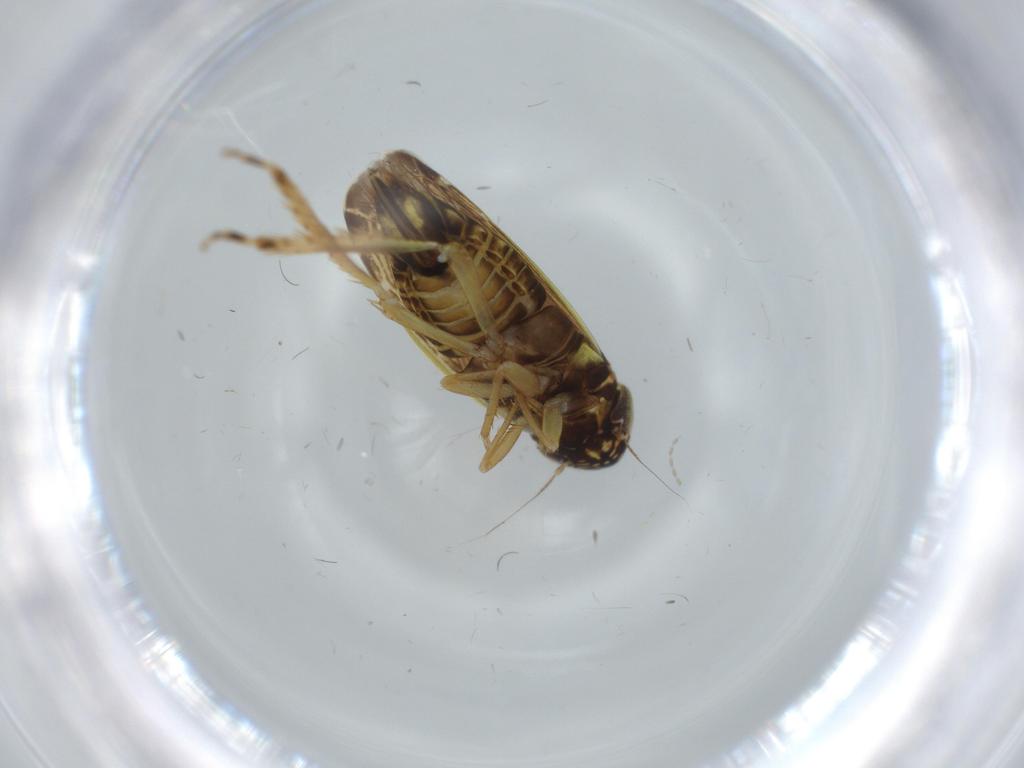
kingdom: Animalia
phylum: Arthropoda
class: Insecta
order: Hemiptera
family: Cicadellidae
